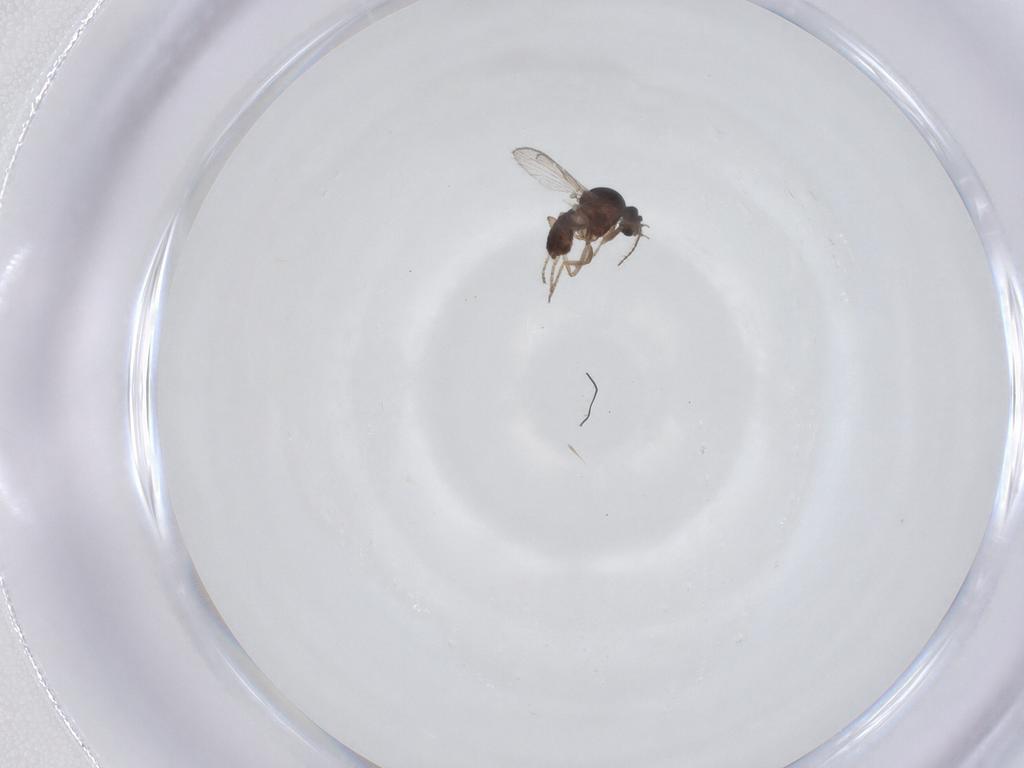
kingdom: Animalia
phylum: Arthropoda
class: Insecta
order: Diptera
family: Ceratopogonidae
